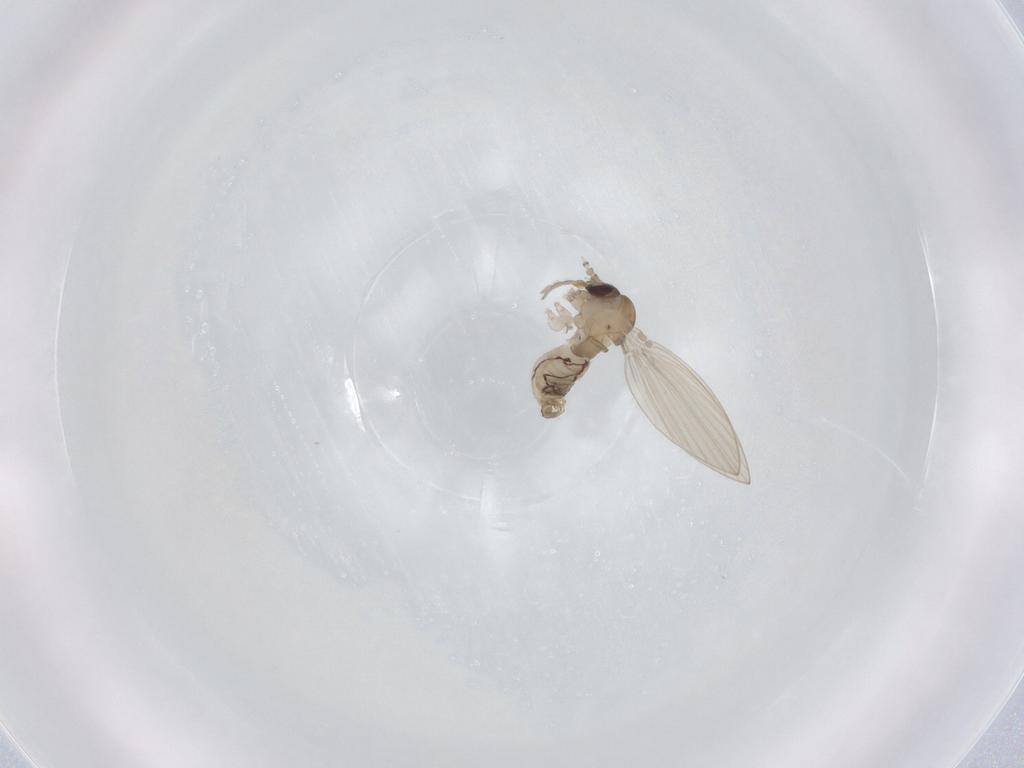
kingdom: Animalia
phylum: Arthropoda
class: Insecta
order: Diptera
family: Psychodidae
